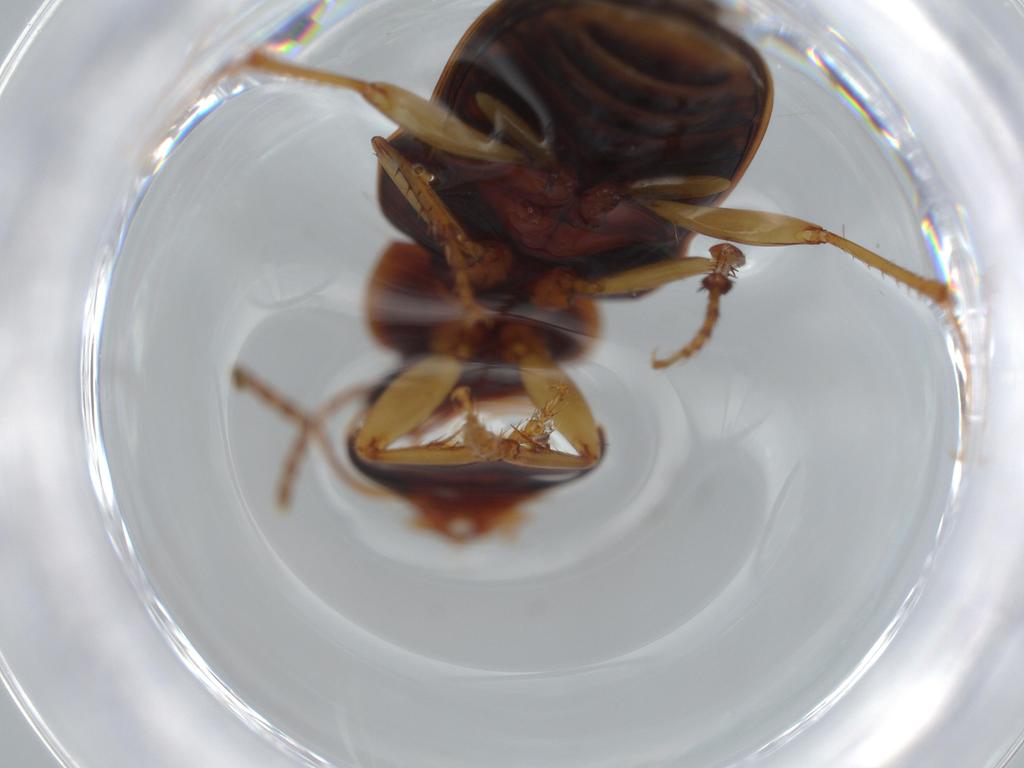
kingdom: Animalia
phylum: Arthropoda
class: Insecta
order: Coleoptera
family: Carabidae
